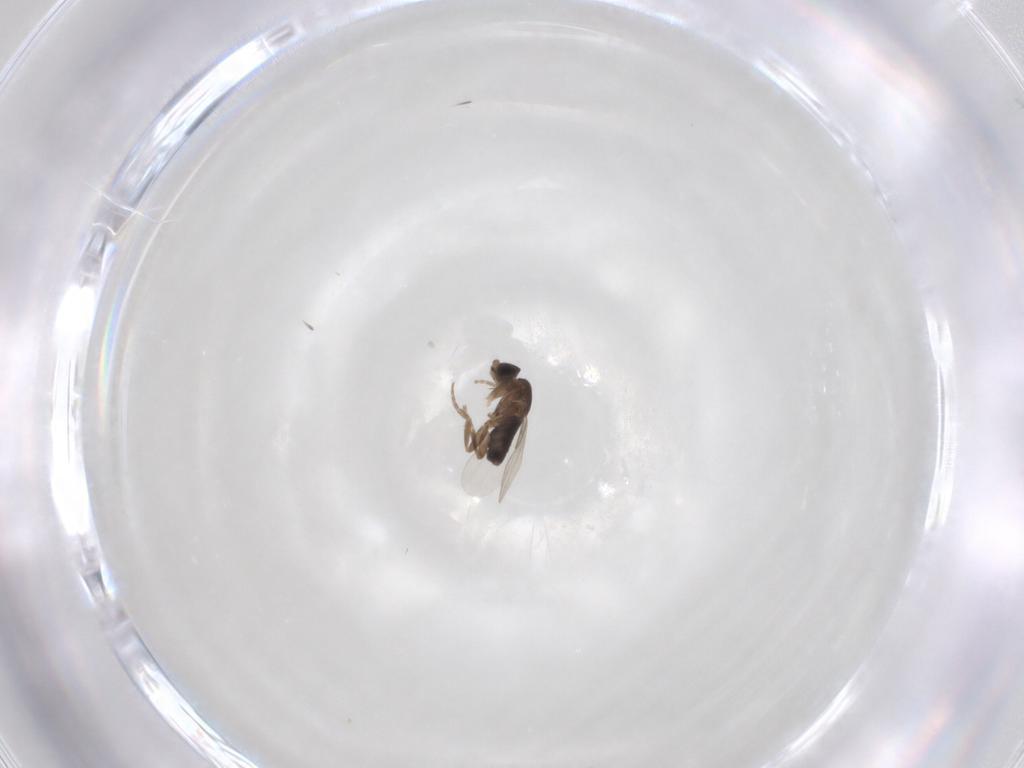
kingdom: Animalia
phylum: Arthropoda
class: Insecta
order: Diptera
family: Phoridae
